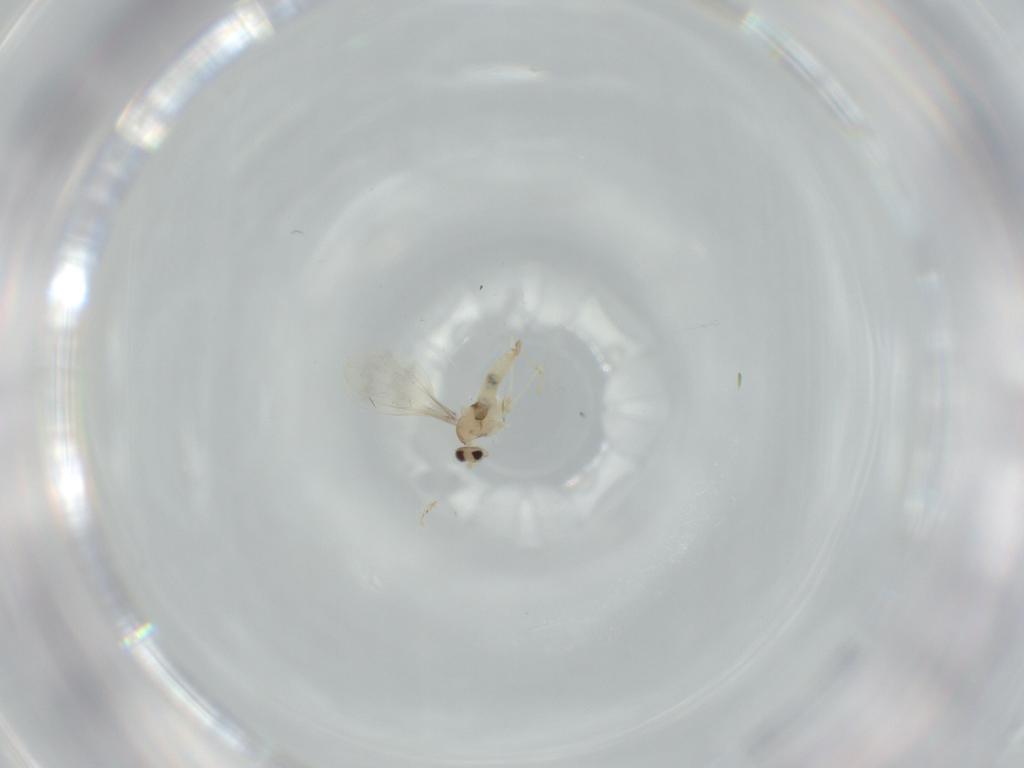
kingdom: Animalia
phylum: Arthropoda
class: Insecta
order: Diptera
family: Cecidomyiidae
